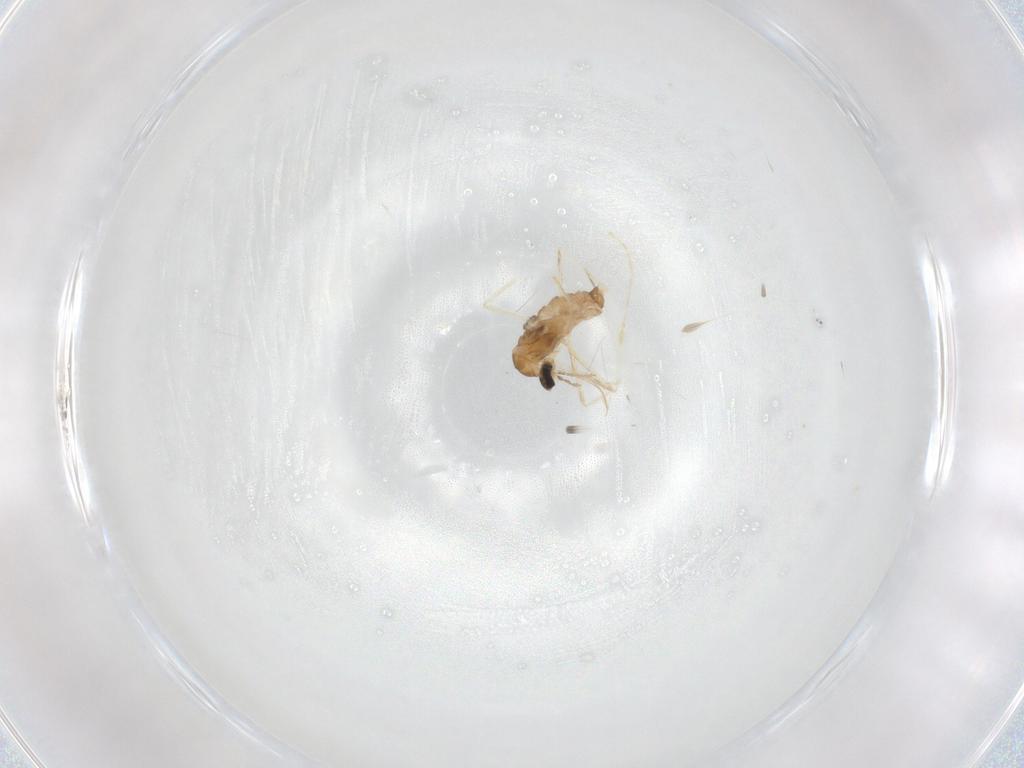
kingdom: Animalia
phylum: Arthropoda
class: Insecta
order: Diptera
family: Cecidomyiidae
